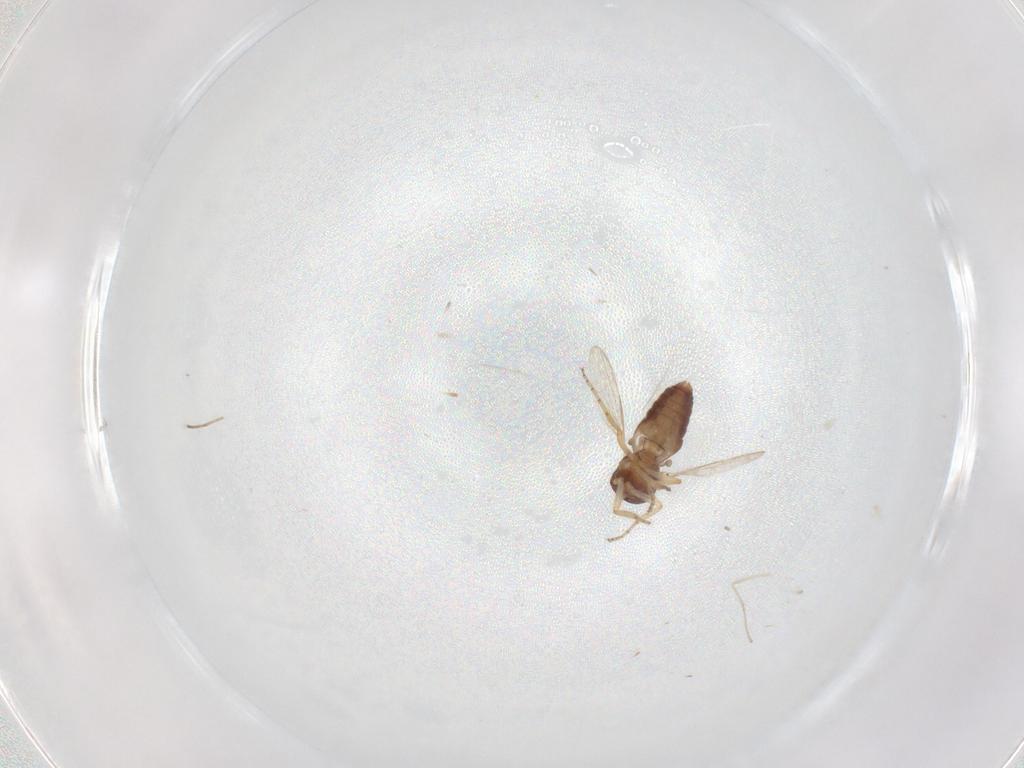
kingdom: Animalia
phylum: Arthropoda
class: Insecta
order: Diptera
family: Ceratopogonidae
